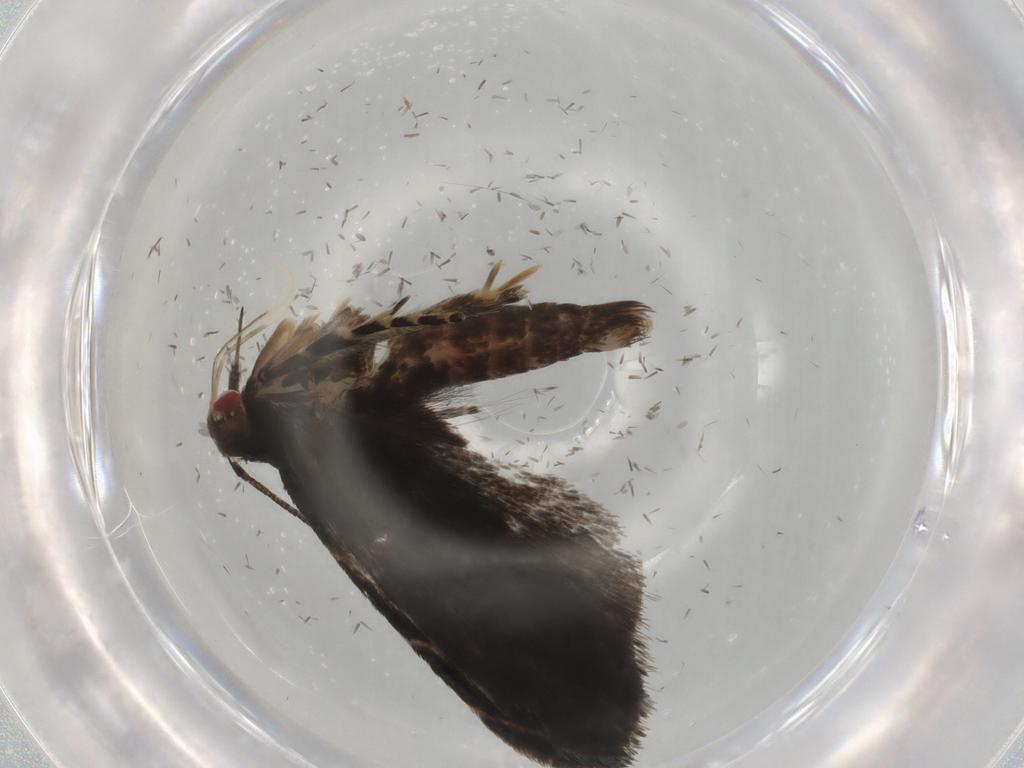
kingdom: Animalia
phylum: Arthropoda
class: Insecta
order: Lepidoptera
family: Gelechiidae
